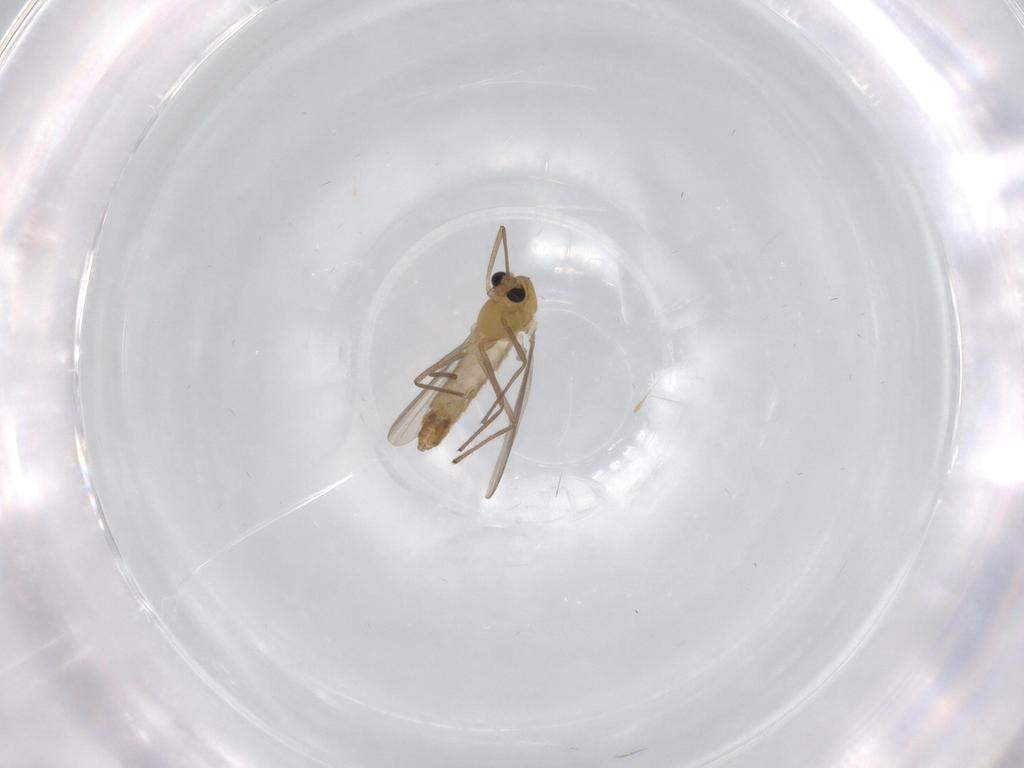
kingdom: Animalia
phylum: Arthropoda
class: Insecta
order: Diptera
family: Chironomidae
